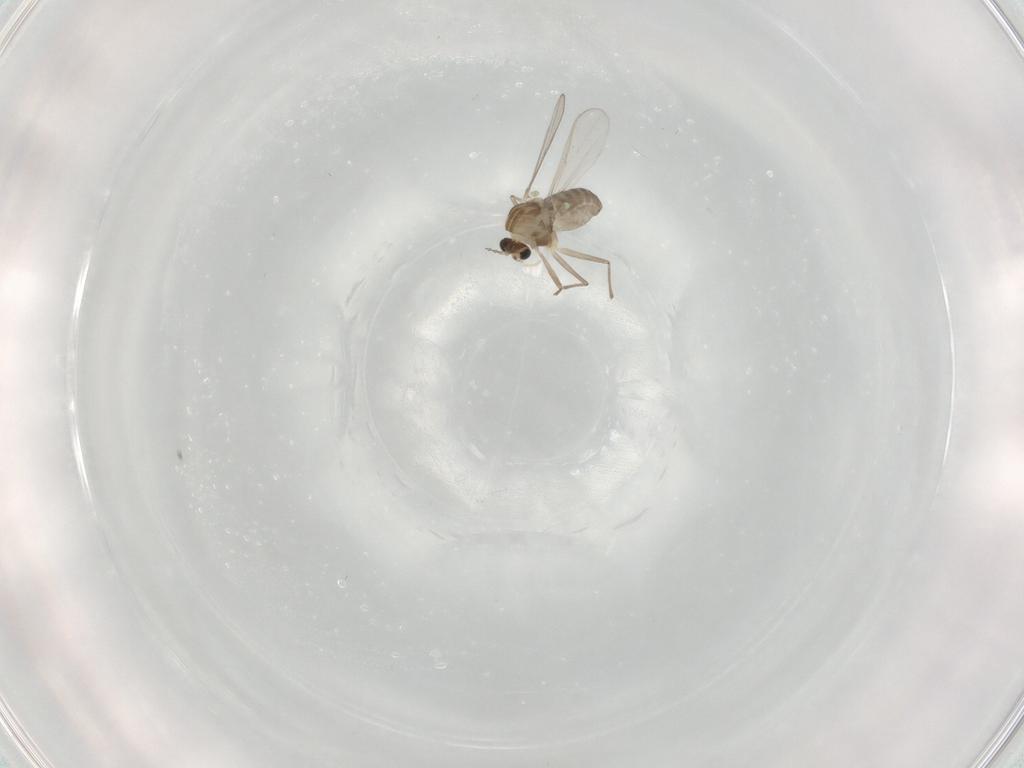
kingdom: Animalia
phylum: Arthropoda
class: Insecta
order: Diptera
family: Chironomidae
